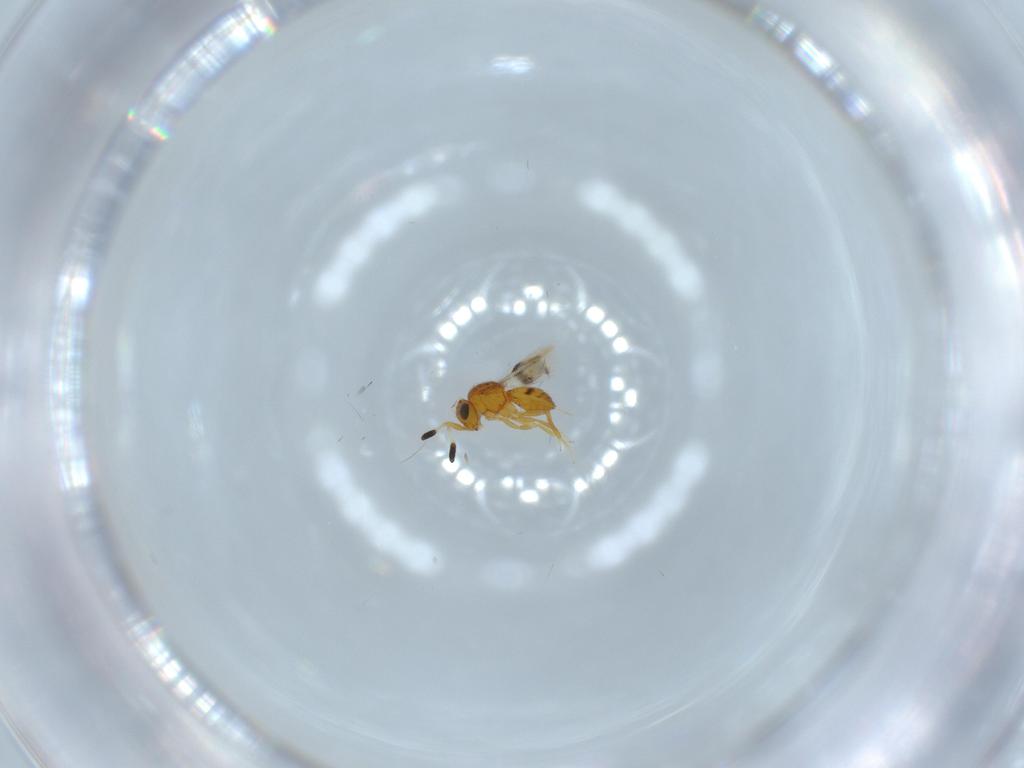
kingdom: Animalia
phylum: Arthropoda
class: Insecta
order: Hymenoptera
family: Scelionidae
